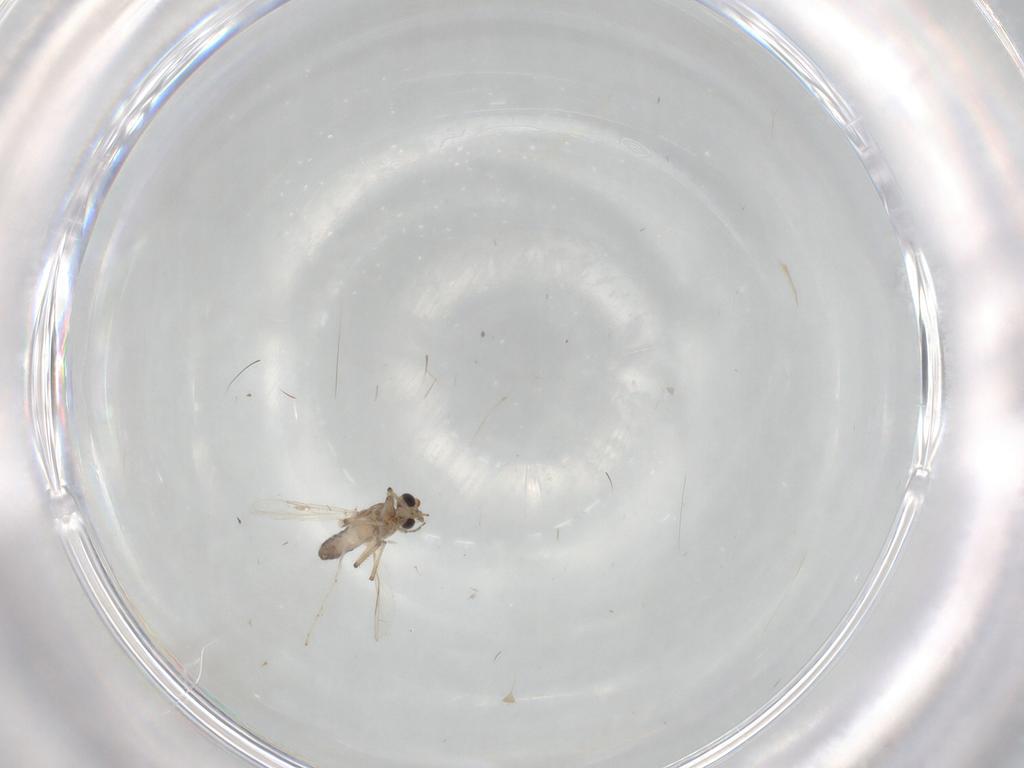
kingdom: Animalia
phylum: Arthropoda
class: Insecta
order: Diptera
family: Ceratopogonidae
